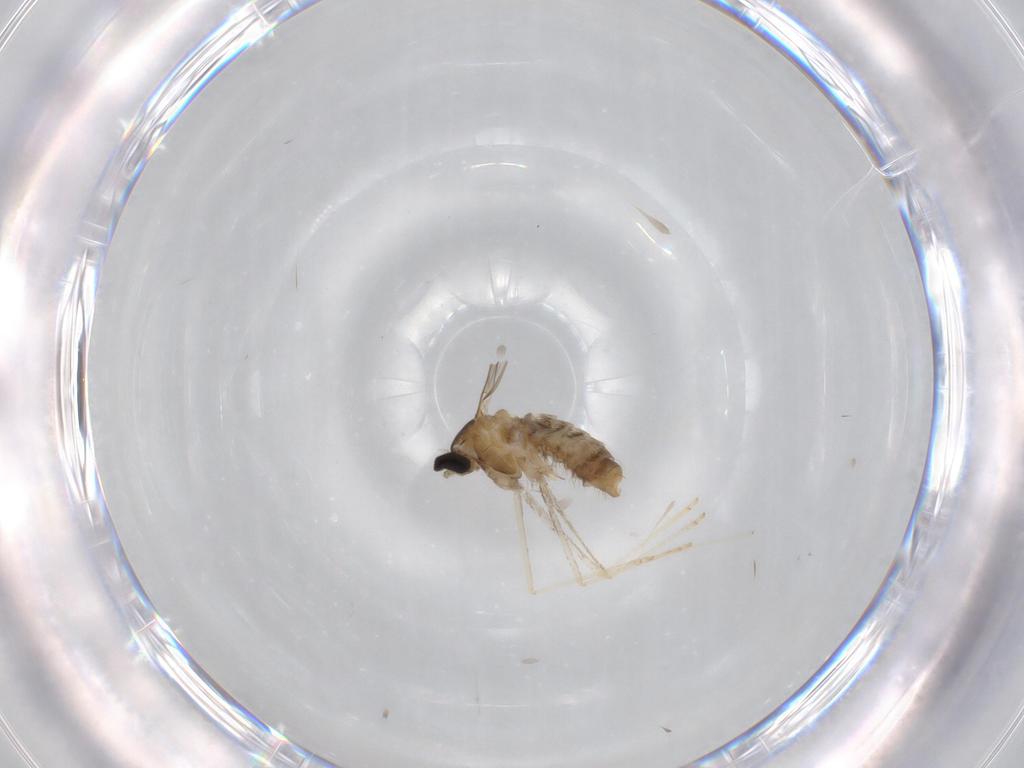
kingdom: Animalia
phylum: Arthropoda
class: Insecta
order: Diptera
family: Cecidomyiidae
